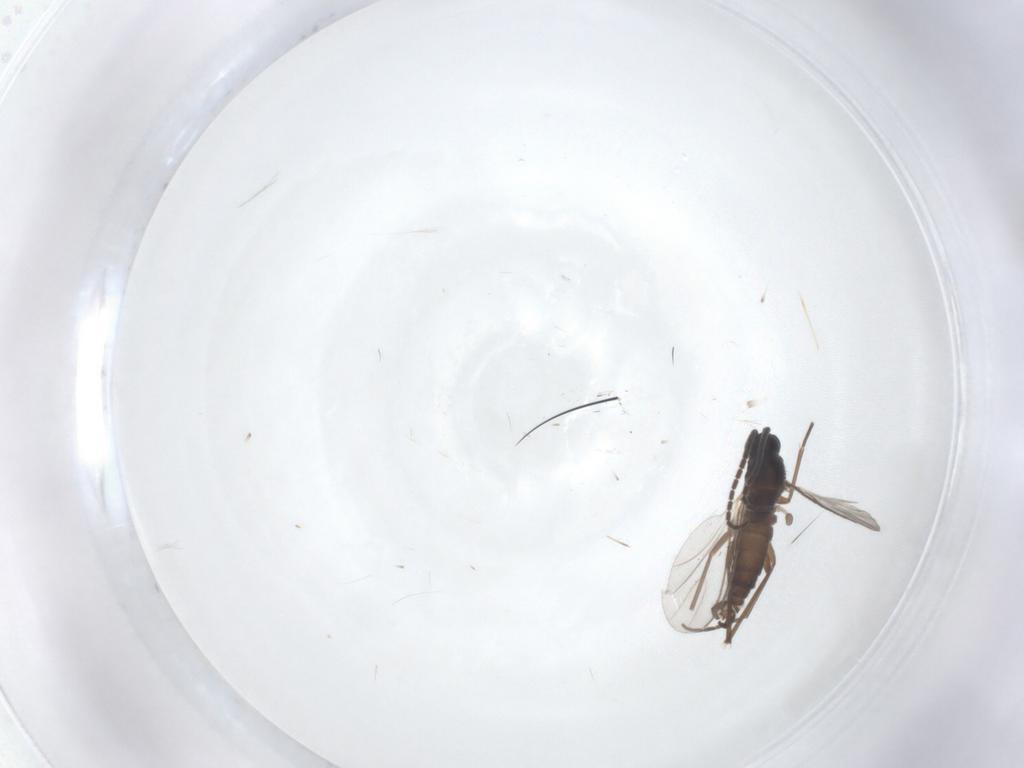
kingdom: Animalia
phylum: Arthropoda
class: Insecta
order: Diptera
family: Sciaridae
